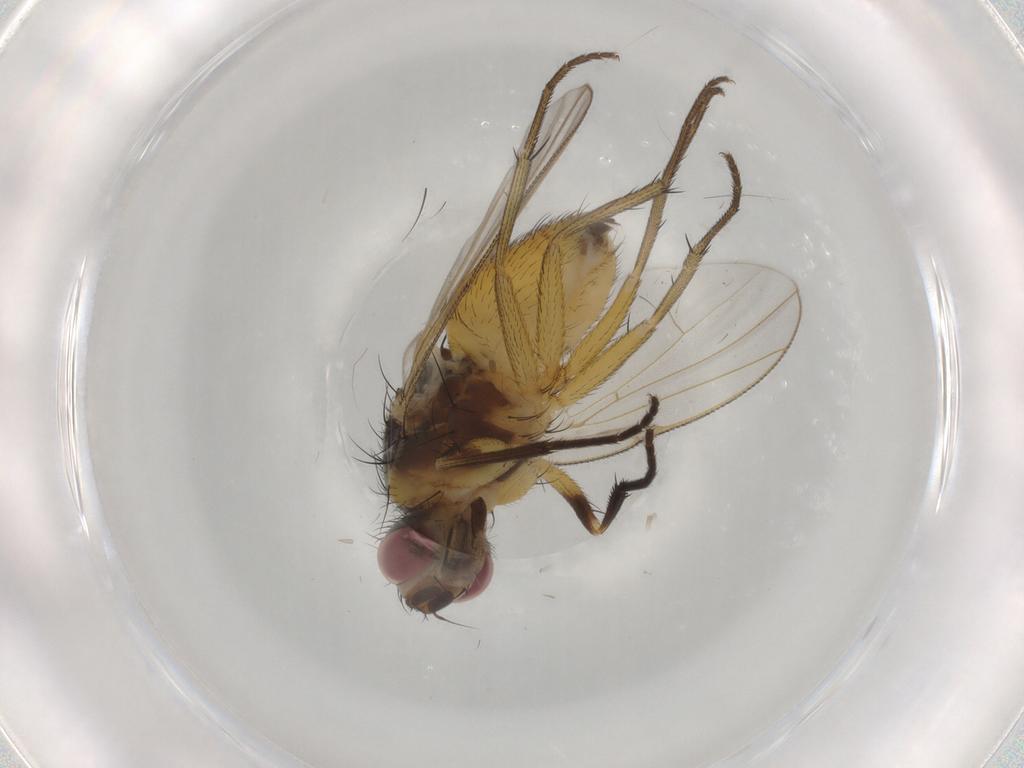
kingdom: Animalia
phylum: Arthropoda
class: Insecta
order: Diptera
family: Muscidae
